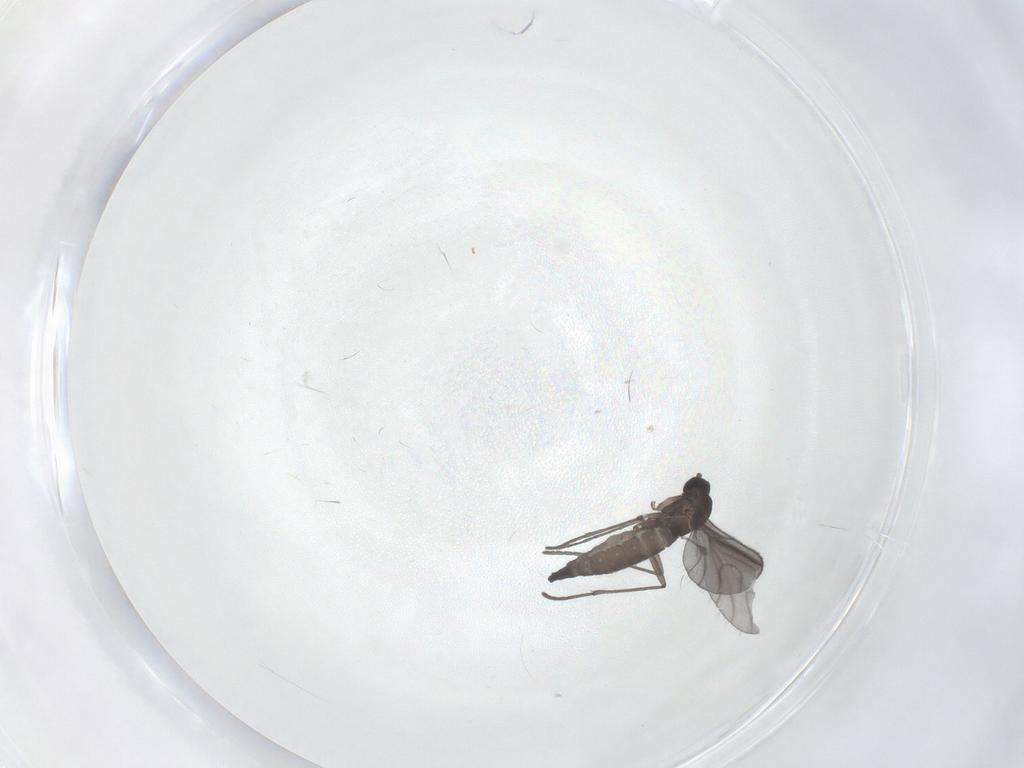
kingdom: Animalia
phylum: Arthropoda
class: Insecta
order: Diptera
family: Sciaridae
